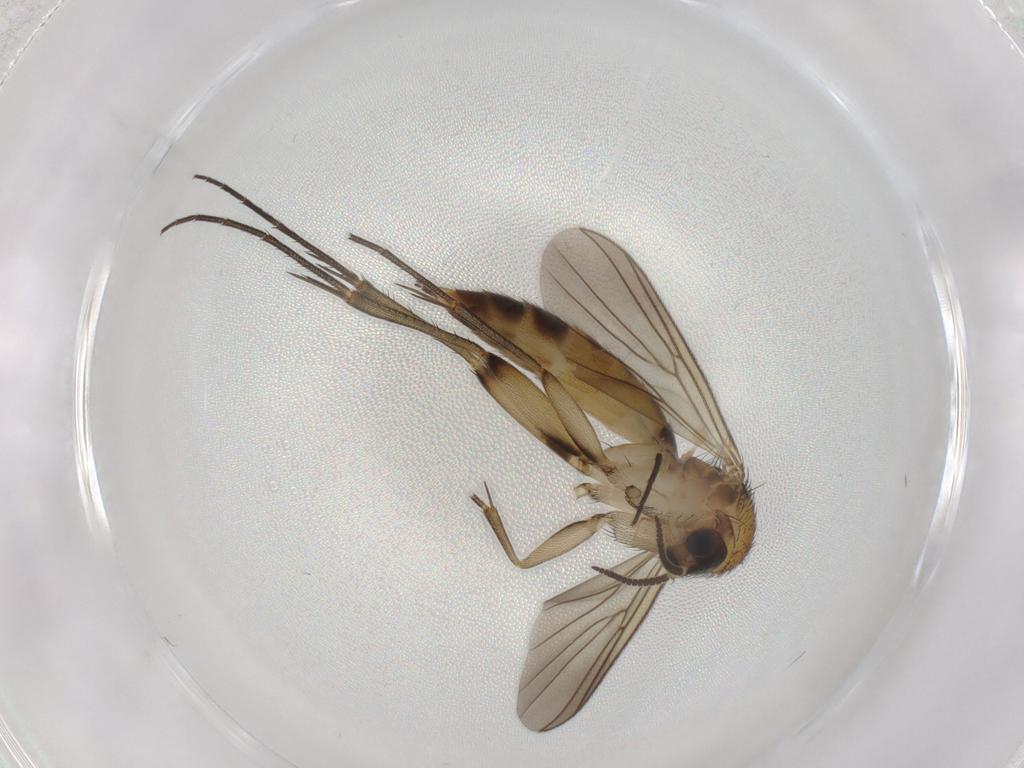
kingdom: Animalia
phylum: Arthropoda
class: Insecta
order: Diptera
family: Mycetophilidae
